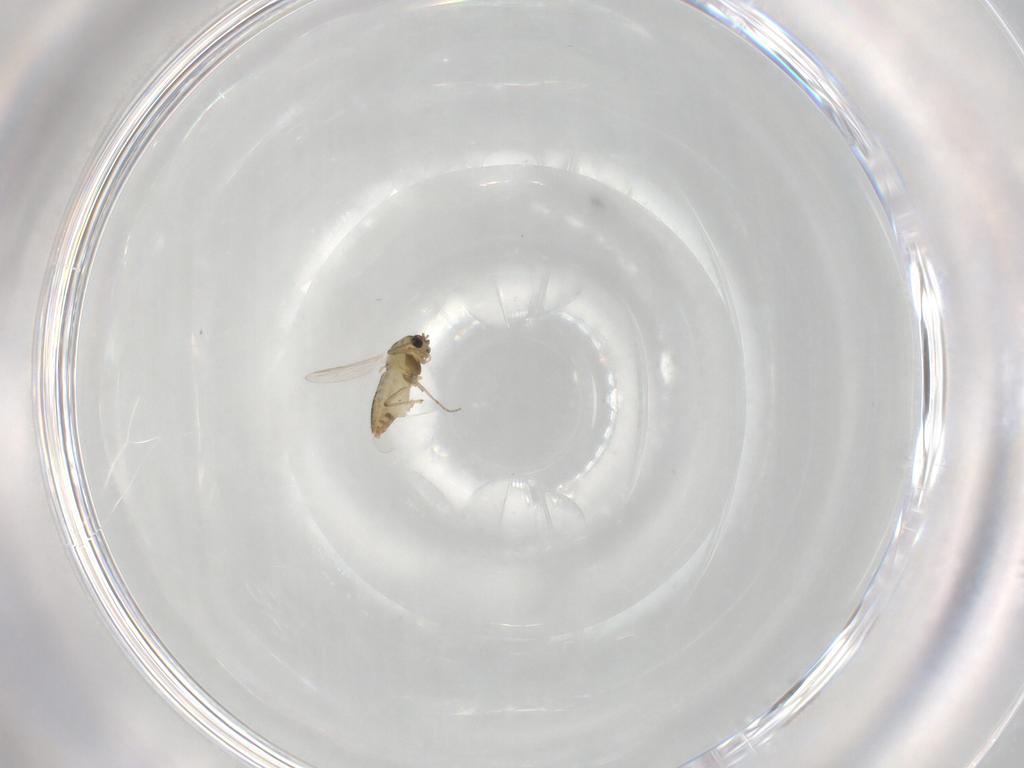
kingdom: Animalia
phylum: Arthropoda
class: Insecta
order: Diptera
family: Chironomidae
